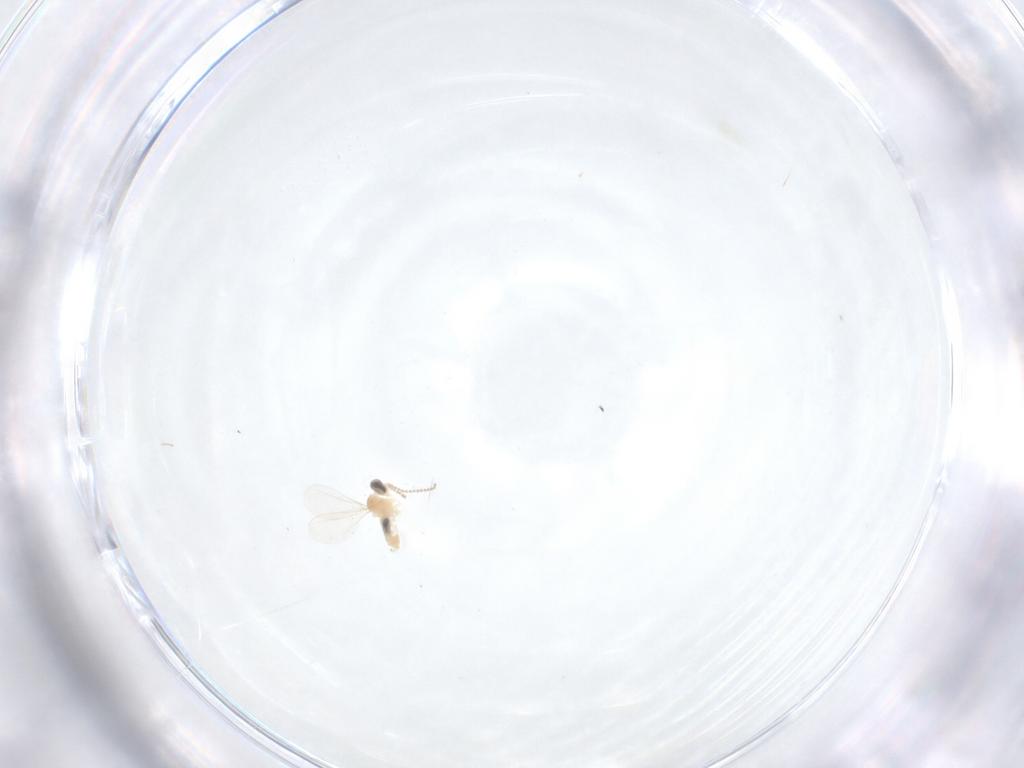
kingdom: Animalia
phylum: Arthropoda
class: Insecta
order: Diptera
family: Cecidomyiidae
